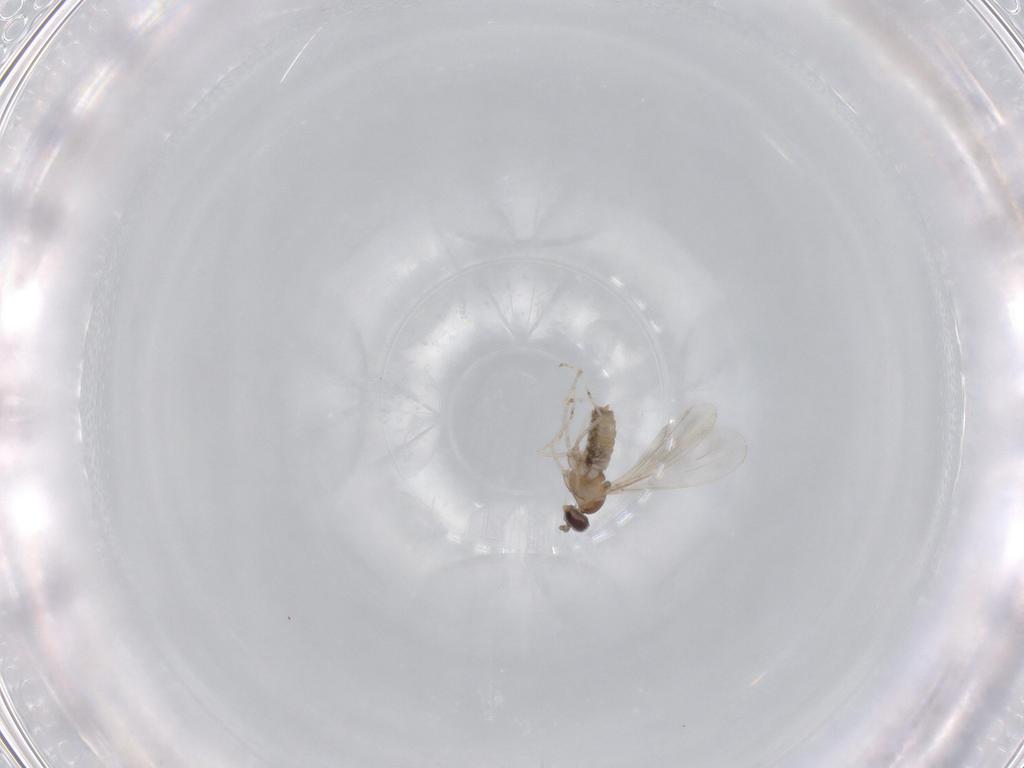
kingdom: Animalia
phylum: Arthropoda
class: Insecta
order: Diptera
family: Cecidomyiidae
